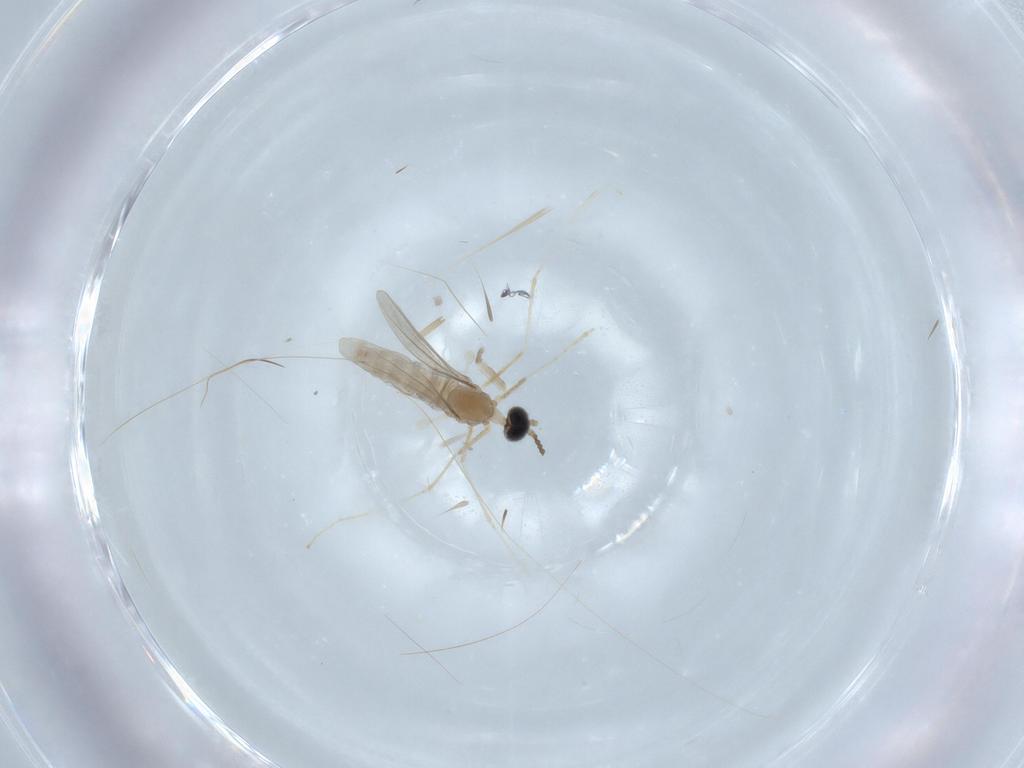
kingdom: Animalia
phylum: Arthropoda
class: Insecta
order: Diptera
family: Cecidomyiidae
